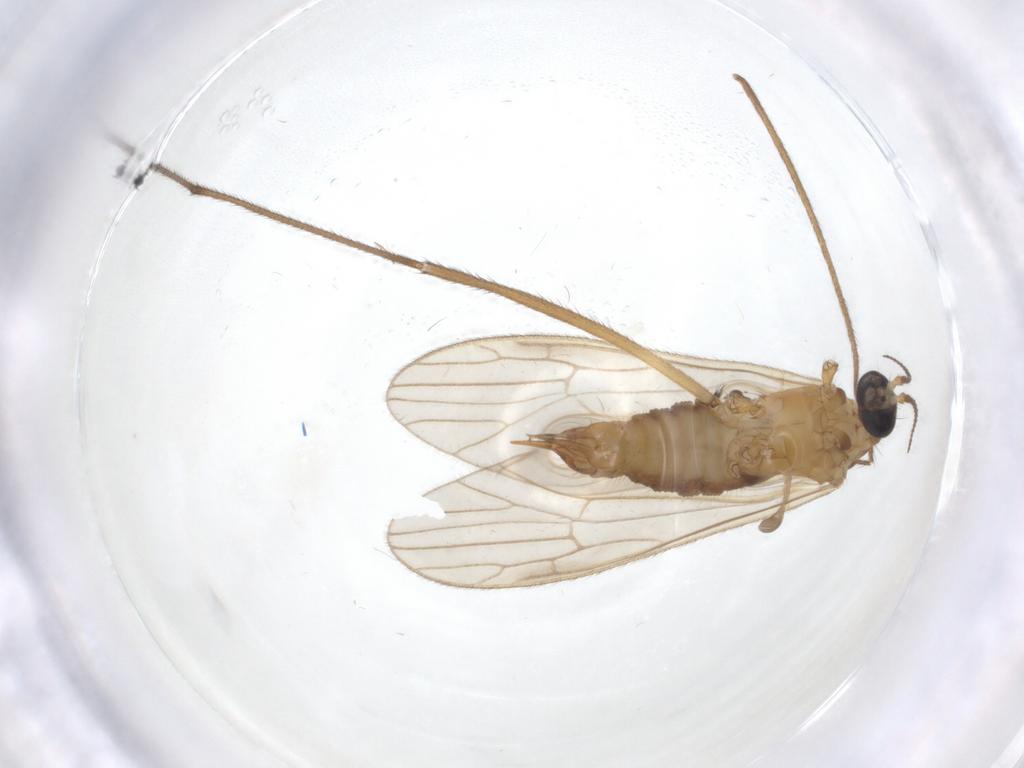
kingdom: Animalia
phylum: Arthropoda
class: Insecta
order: Diptera
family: Limoniidae
